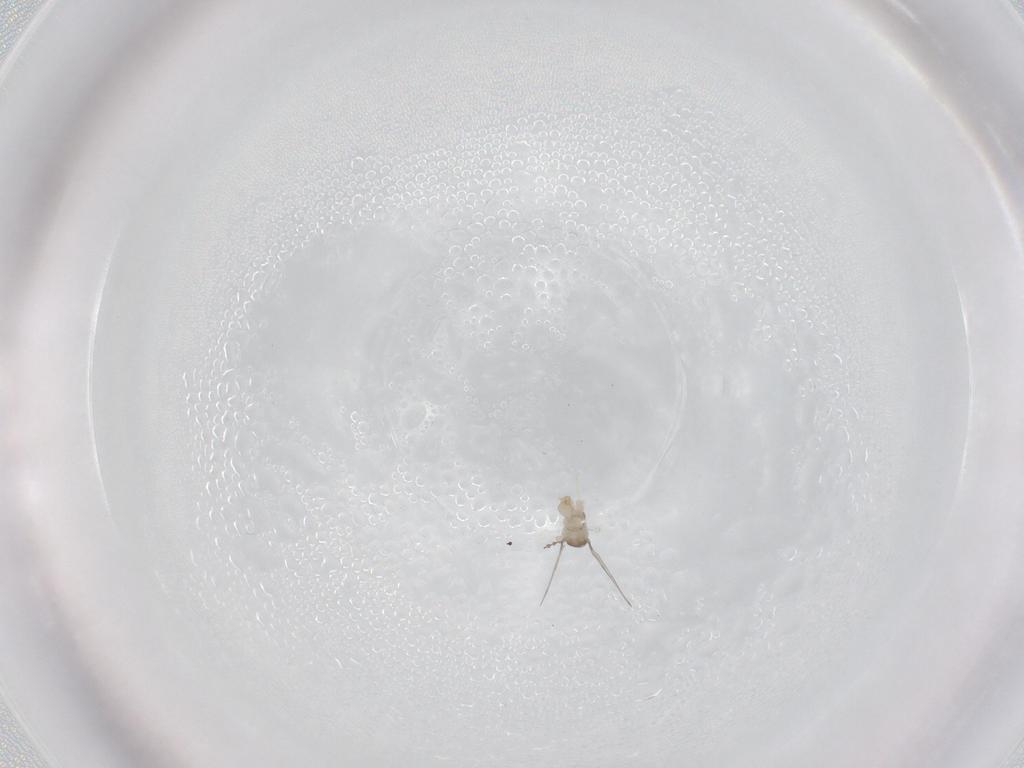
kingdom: Animalia
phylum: Arthropoda
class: Insecta
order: Diptera
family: Cecidomyiidae
